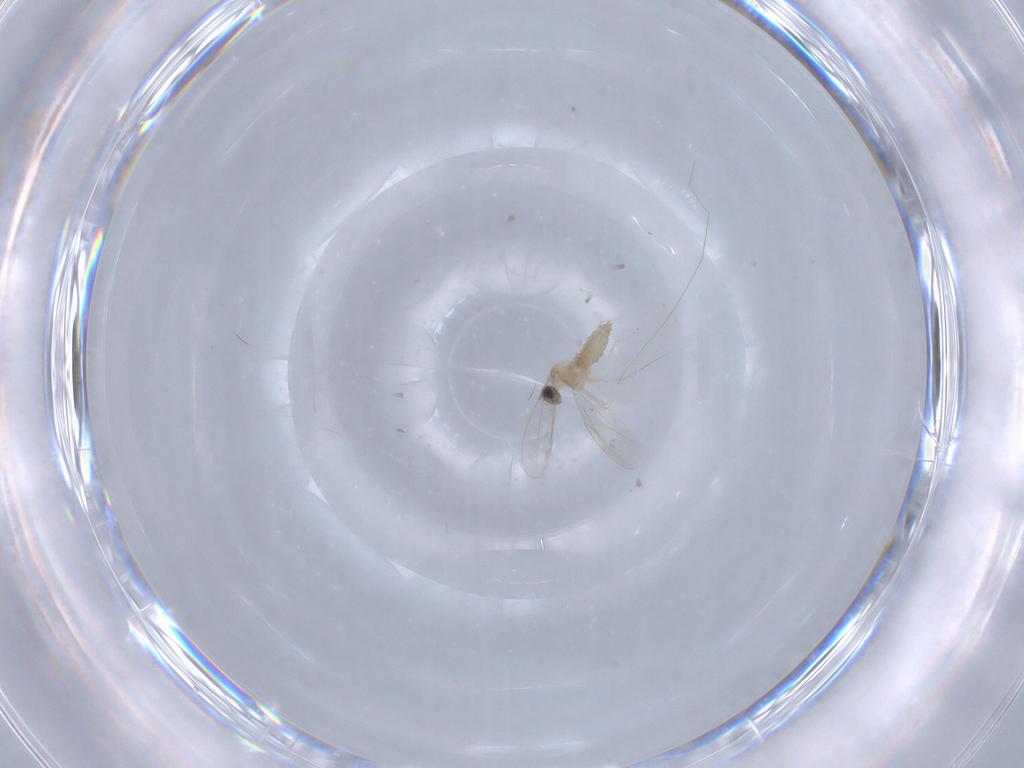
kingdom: Animalia
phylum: Arthropoda
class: Insecta
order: Diptera
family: Cecidomyiidae
